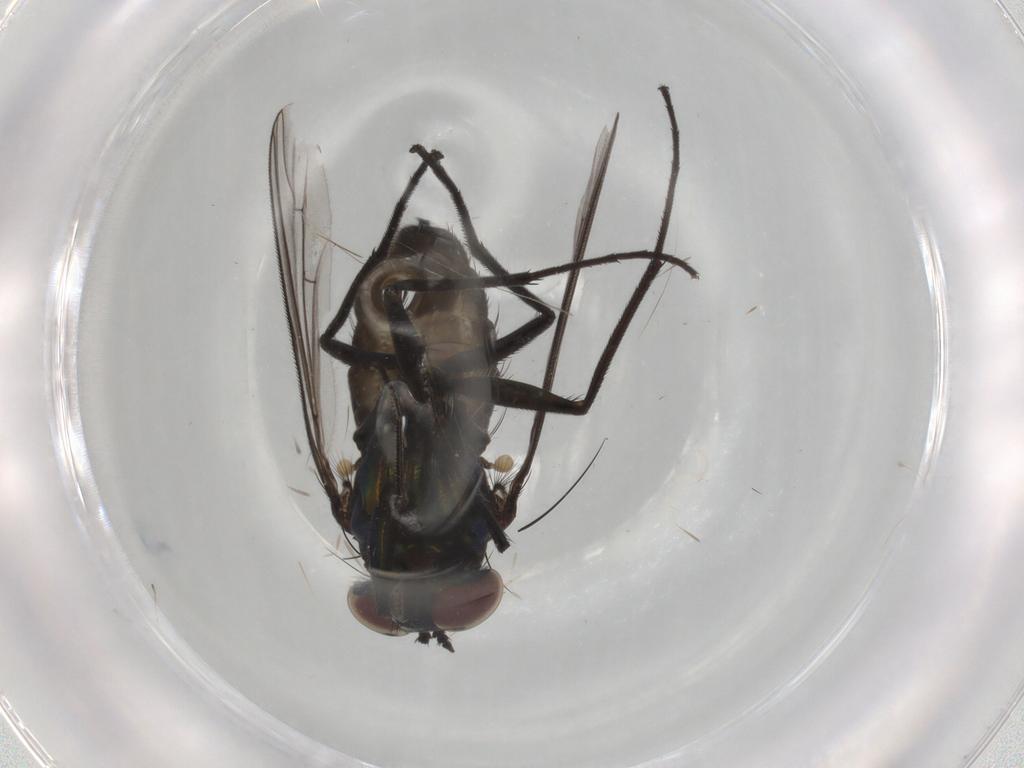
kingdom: Animalia
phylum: Arthropoda
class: Insecta
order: Diptera
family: Dolichopodidae
